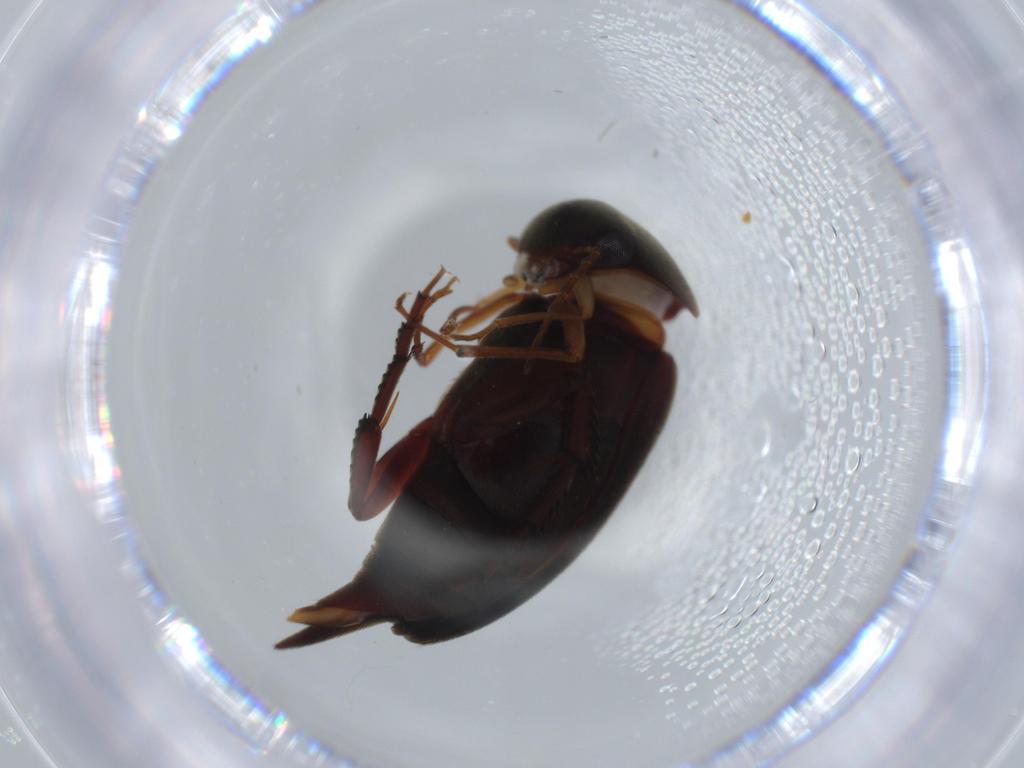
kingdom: Animalia
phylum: Arthropoda
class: Insecta
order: Coleoptera
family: Mordellidae
